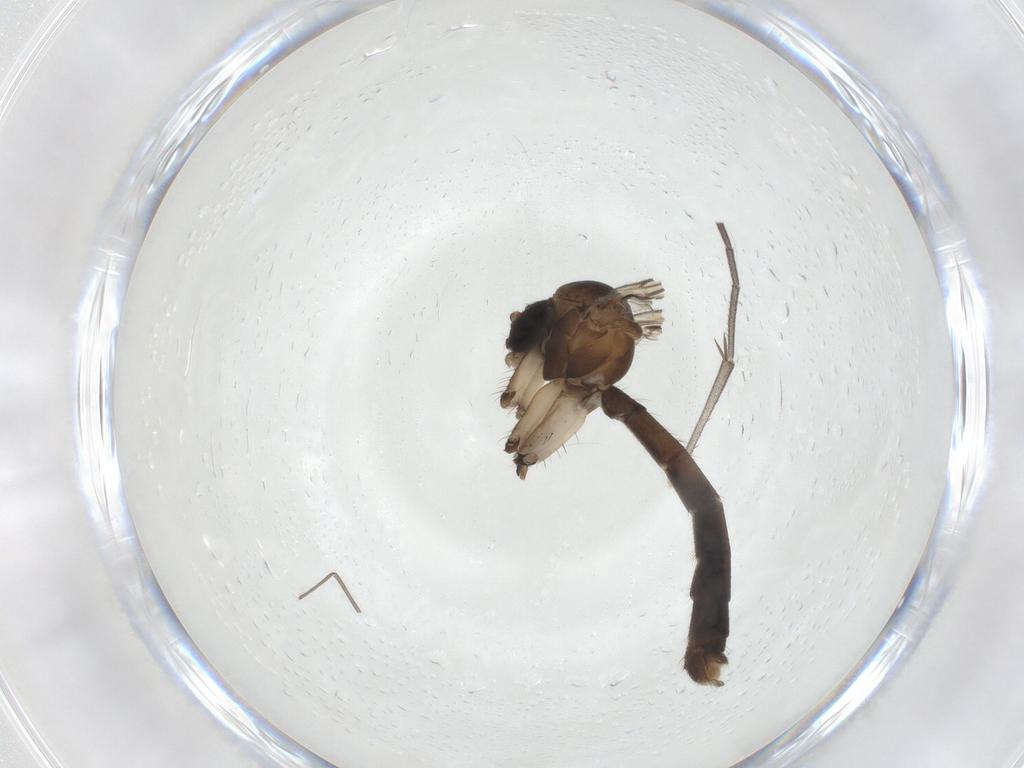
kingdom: Animalia
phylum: Arthropoda
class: Insecta
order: Diptera
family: Mycetophilidae
